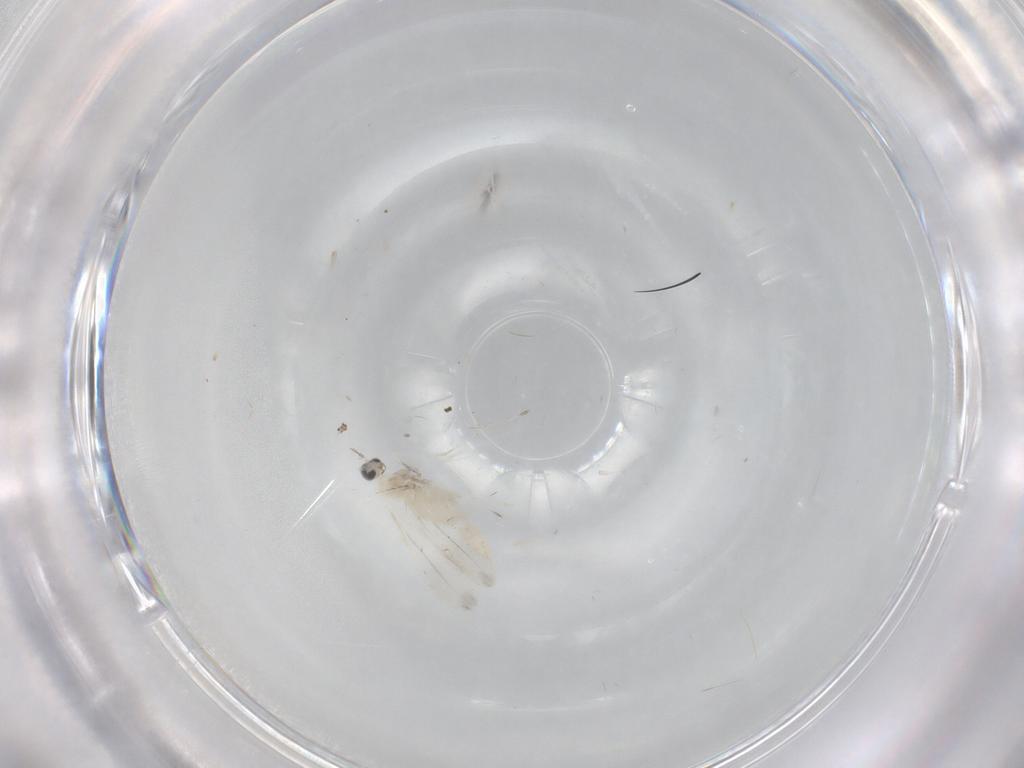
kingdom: Animalia
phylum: Arthropoda
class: Insecta
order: Diptera
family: Cecidomyiidae
